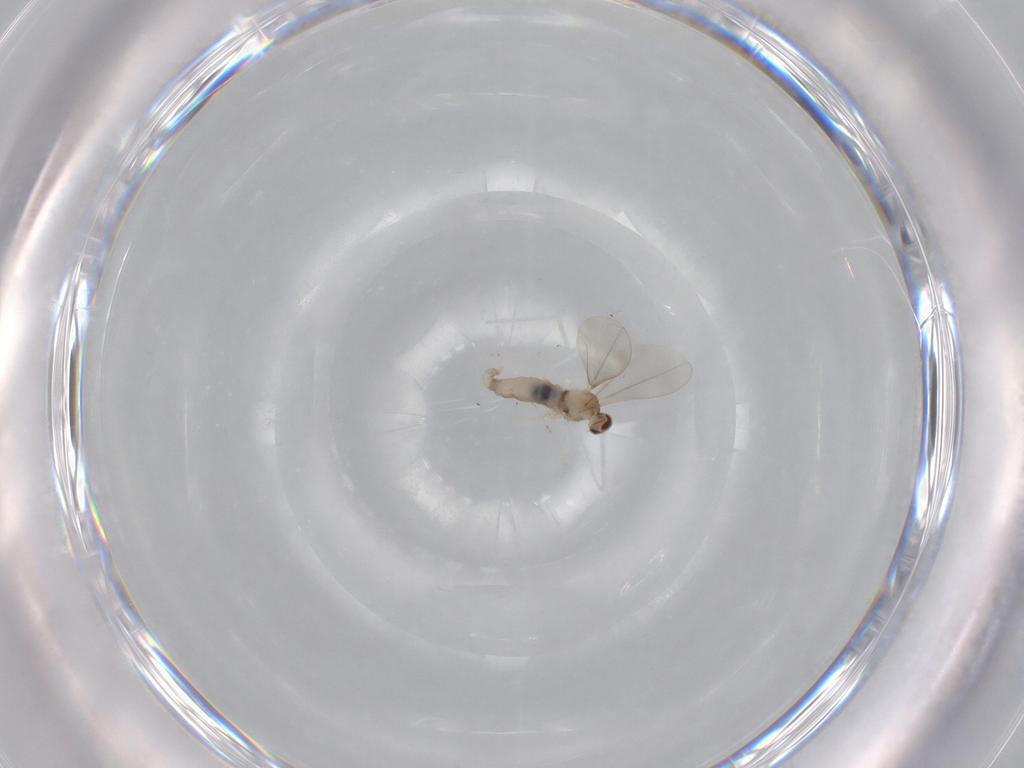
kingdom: Animalia
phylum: Arthropoda
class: Insecta
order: Diptera
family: Cecidomyiidae
